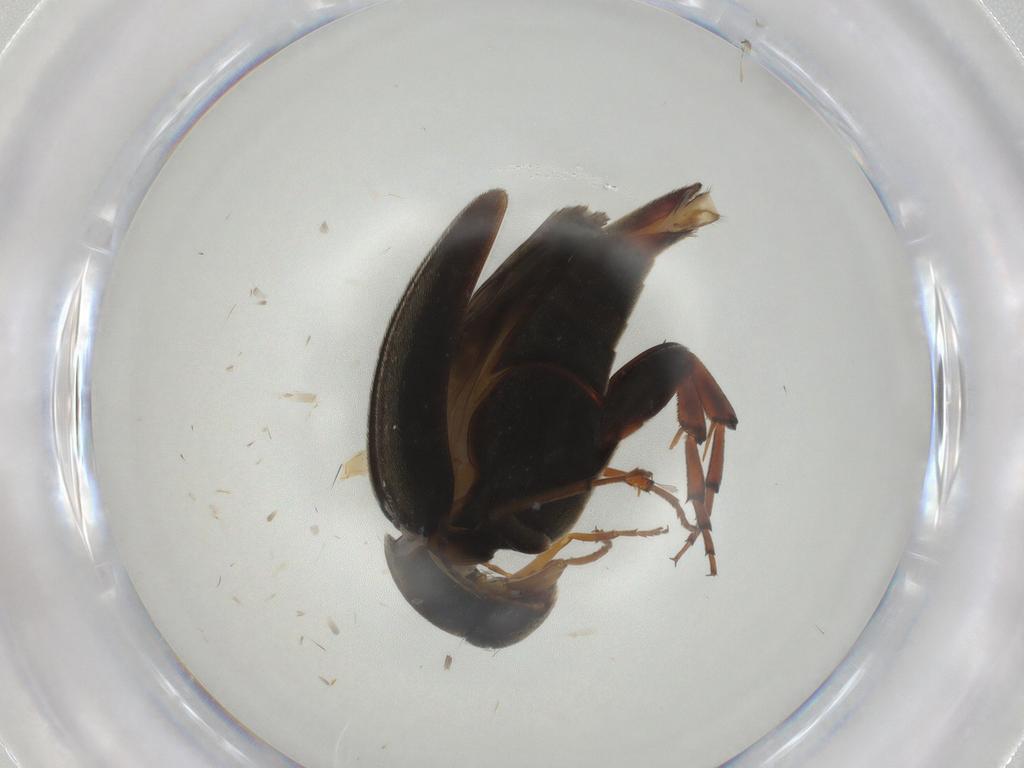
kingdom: Animalia
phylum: Arthropoda
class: Insecta
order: Coleoptera
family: Mordellidae
